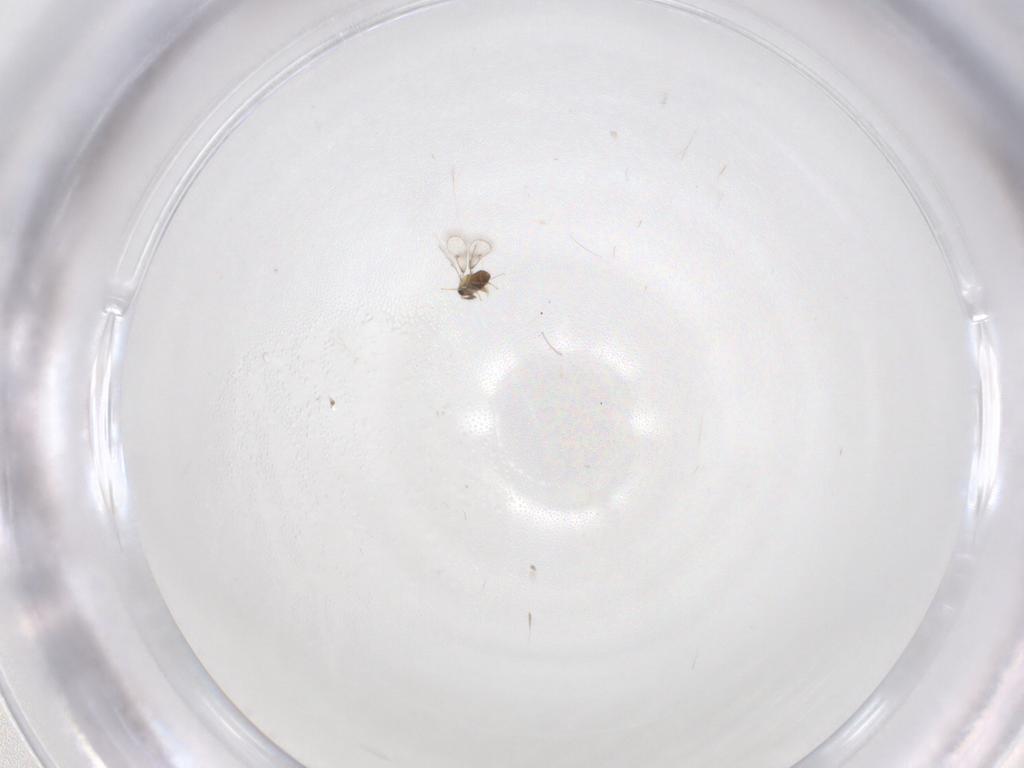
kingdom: Animalia
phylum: Arthropoda
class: Insecta
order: Hymenoptera
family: Trichogrammatidae
